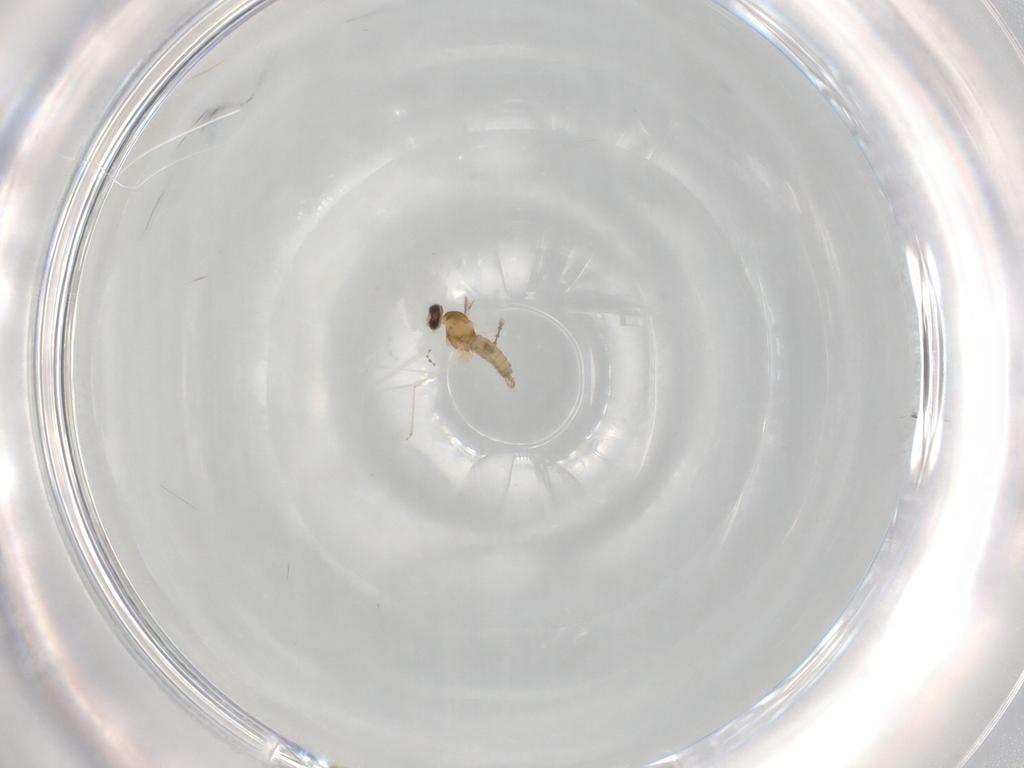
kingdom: Animalia
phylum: Arthropoda
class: Insecta
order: Diptera
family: Cecidomyiidae
